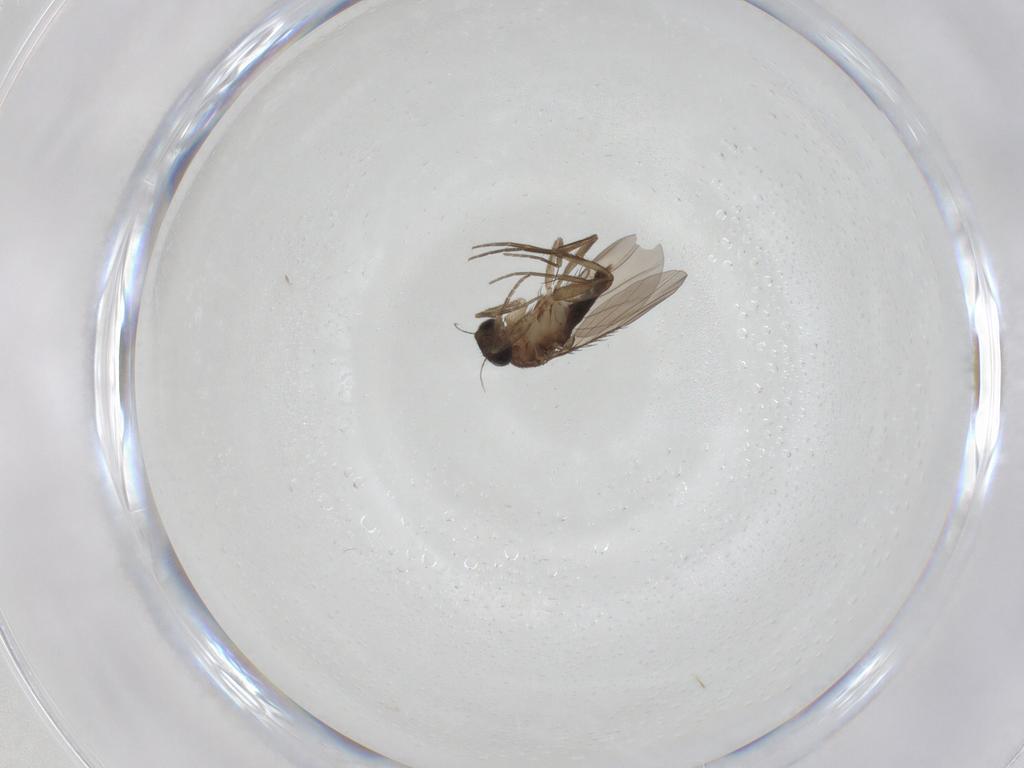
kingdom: Animalia
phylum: Arthropoda
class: Insecta
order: Diptera
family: Phoridae
